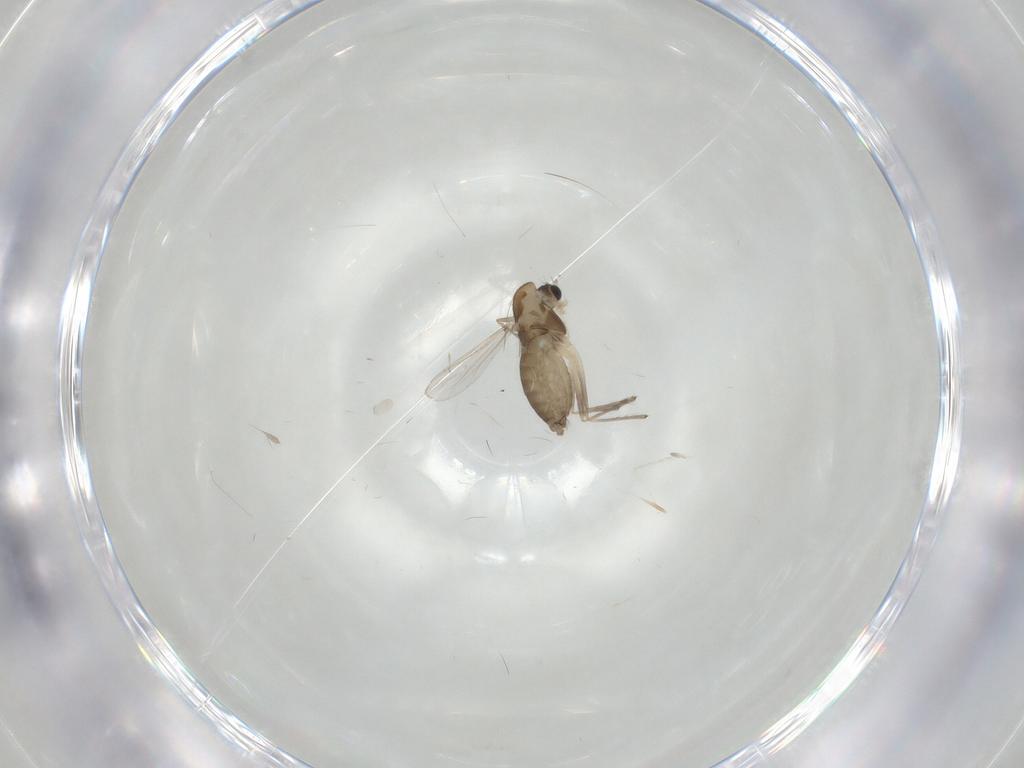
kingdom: Animalia
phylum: Arthropoda
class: Insecta
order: Diptera
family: Chironomidae
